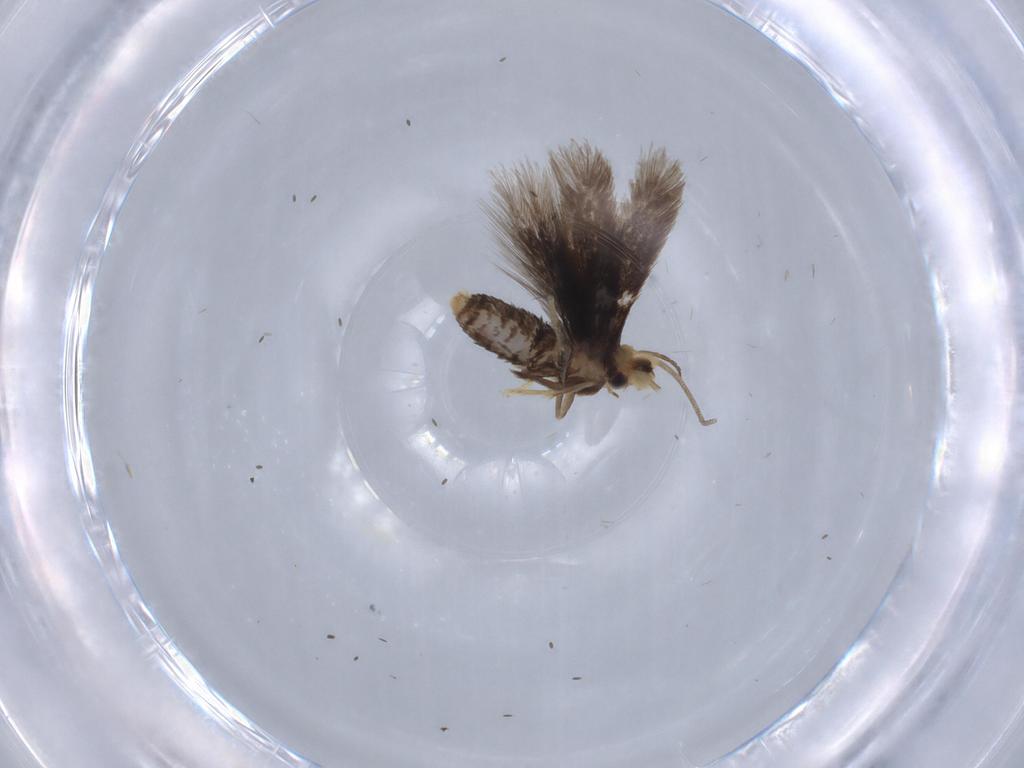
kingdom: Animalia
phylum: Arthropoda
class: Insecta
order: Lepidoptera
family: Nepticulidae
